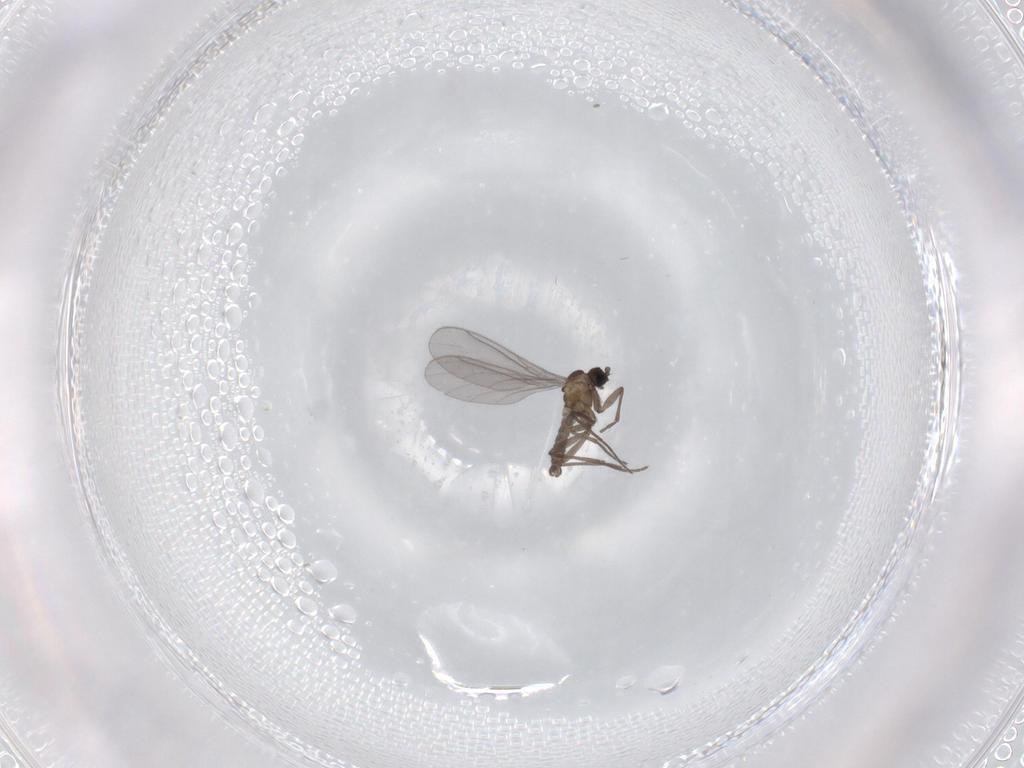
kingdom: Animalia
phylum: Arthropoda
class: Insecta
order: Diptera
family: Sciaridae
